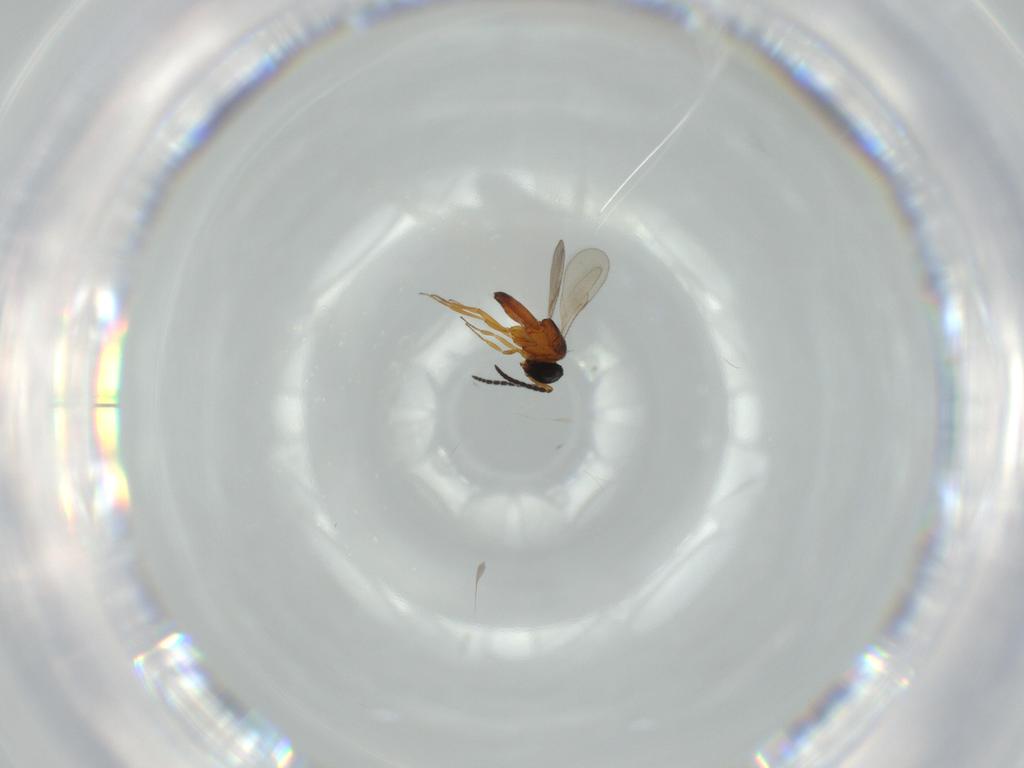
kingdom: Animalia
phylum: Arthropoda
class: Insecta
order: Hymenoptera
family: Scelionidae
